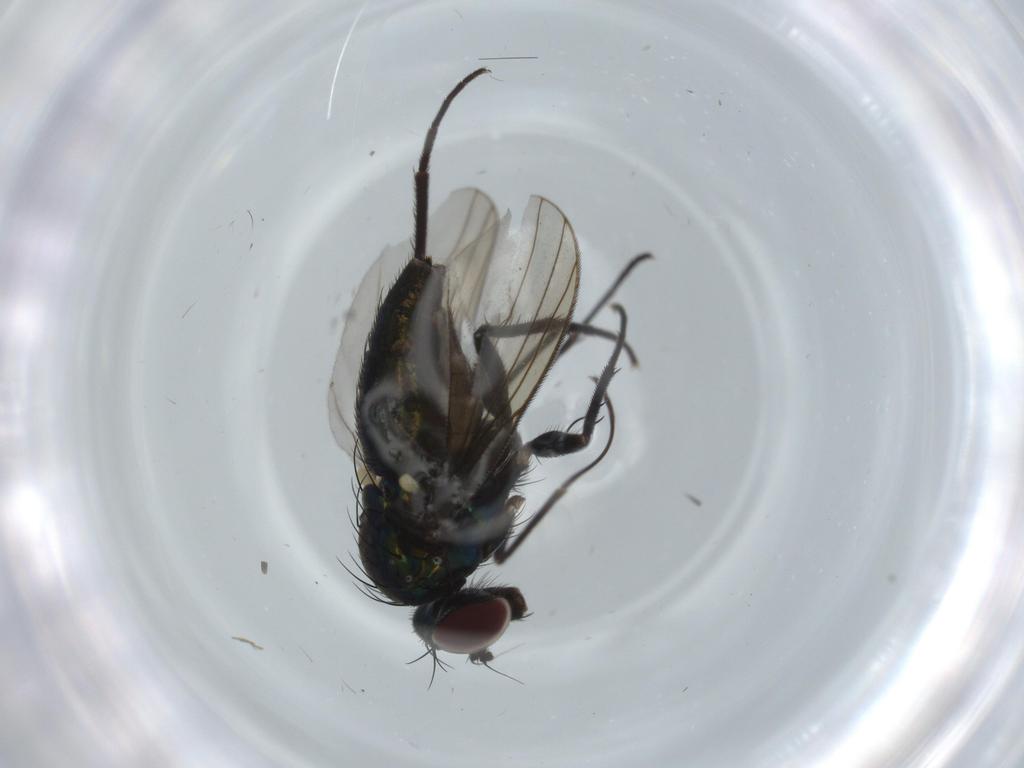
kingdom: Animalia
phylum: Arthropoda
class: Insecta
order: Diptera
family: Dolichopodidae
